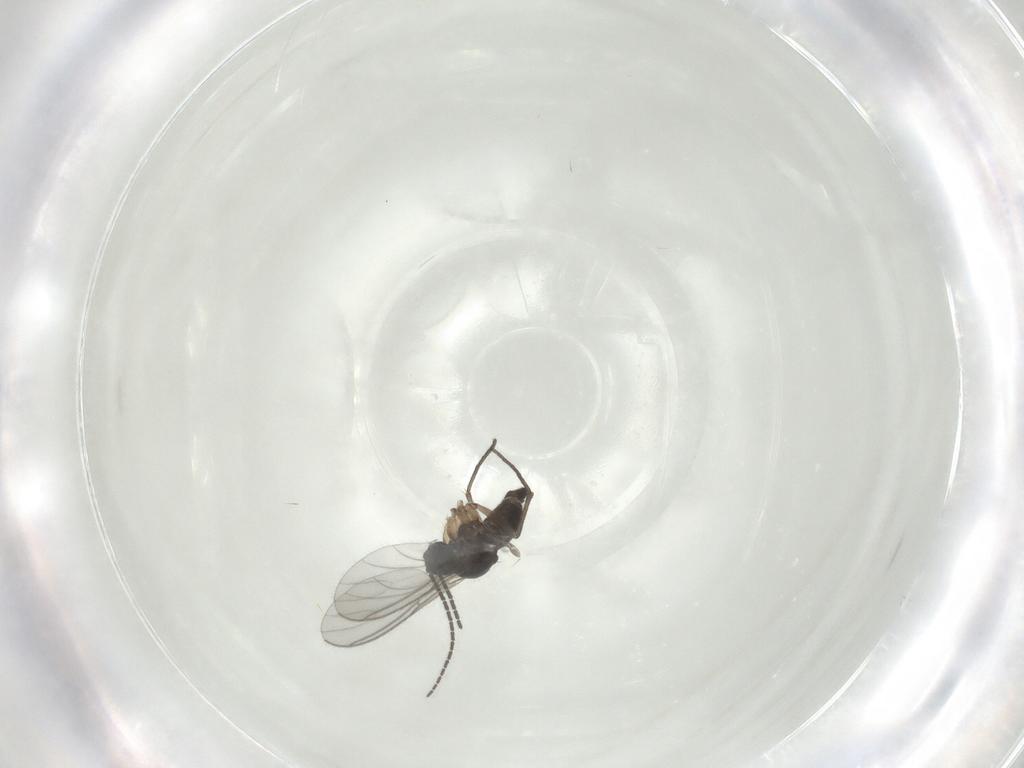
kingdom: Animalia
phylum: Arthropoda
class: Insecta
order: Diptera
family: Sciaridae
